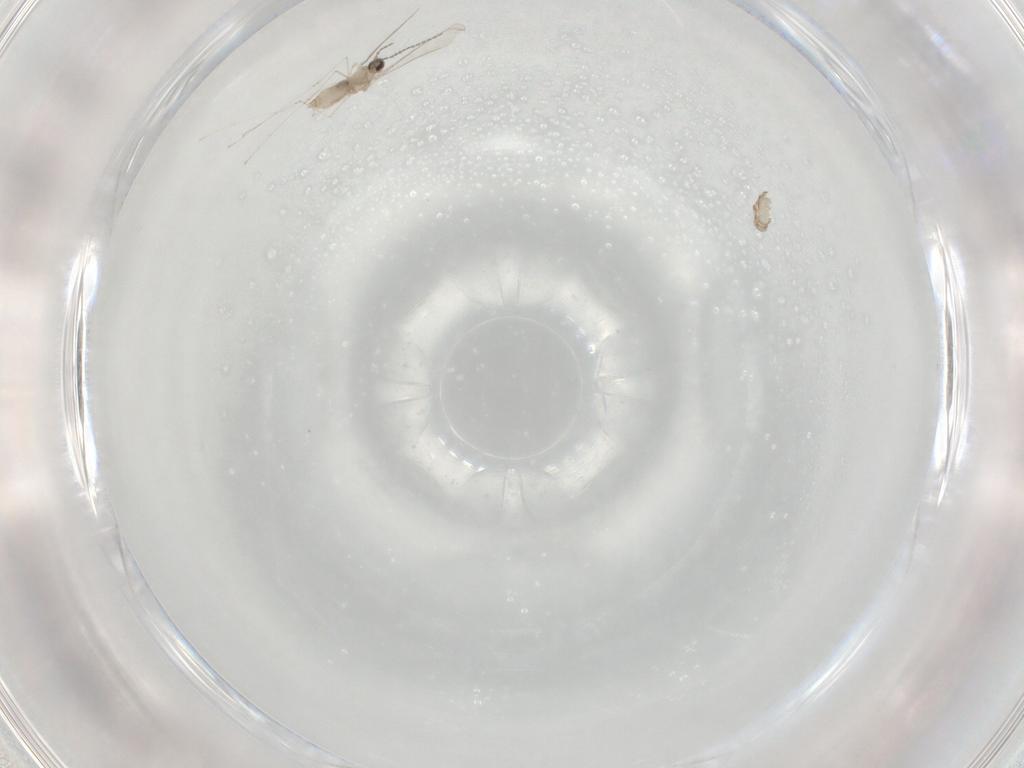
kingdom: Animalia
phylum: Arthropoda
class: Insecta
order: Diptera
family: Cecidomyiidae
